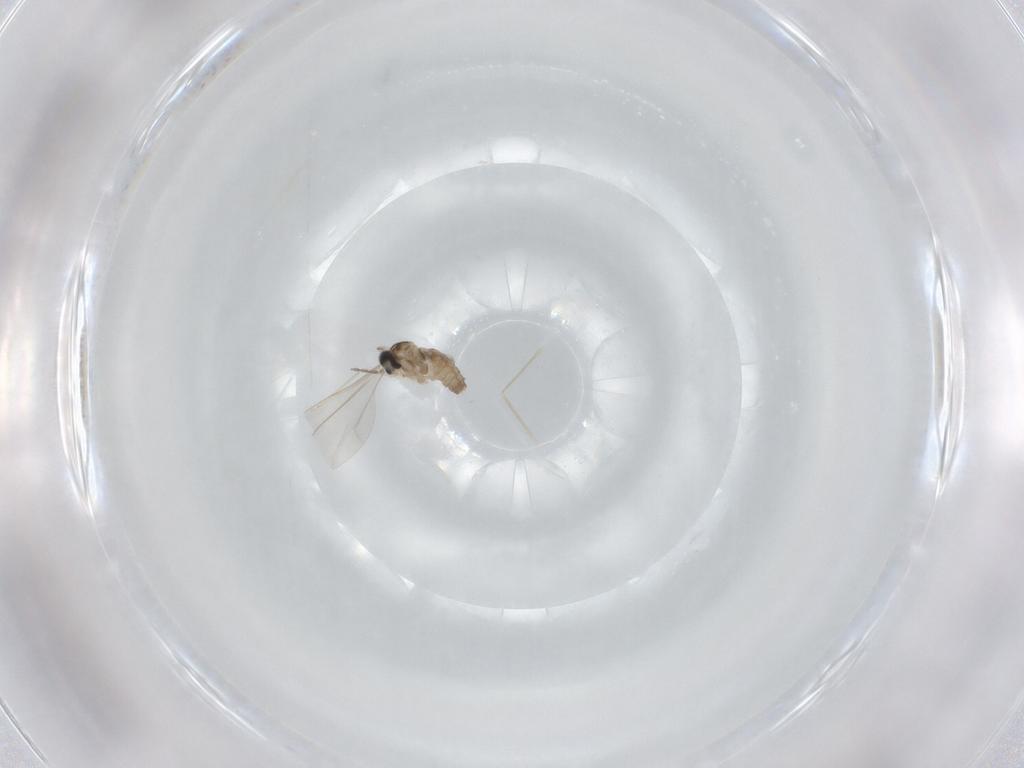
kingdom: Animalia
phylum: Arthropoda
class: Insecta
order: Diptera
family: Cecidomyiidae
